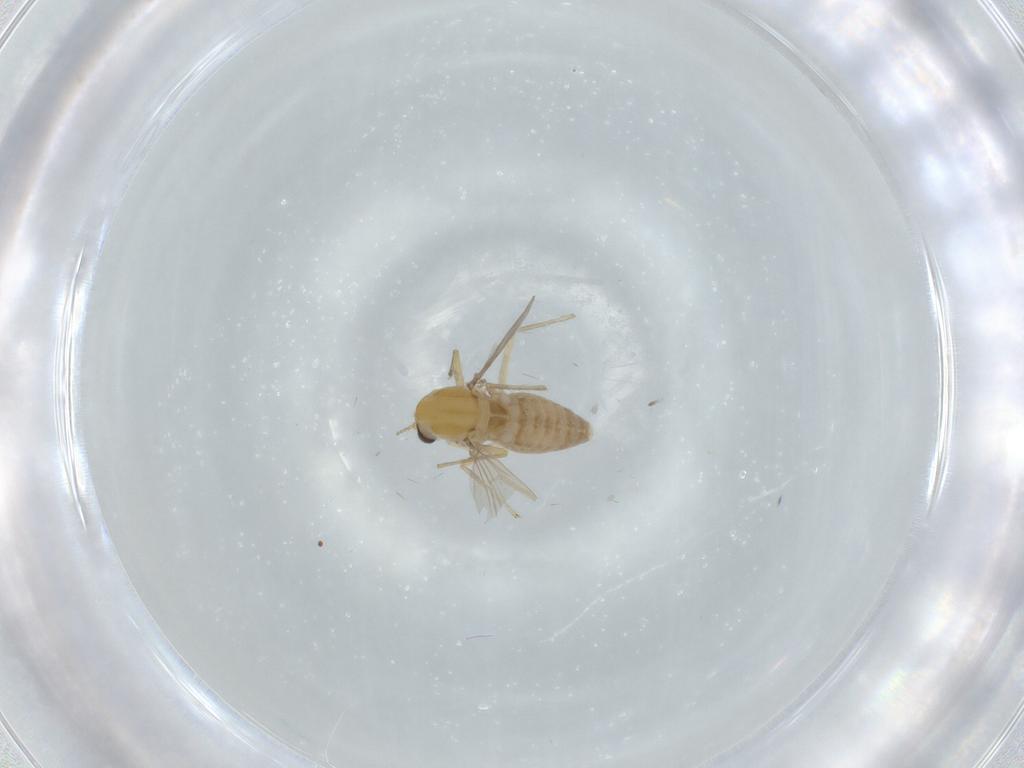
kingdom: Animalia
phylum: Arthropoda
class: Insecta
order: Diptera
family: Chironomidae
